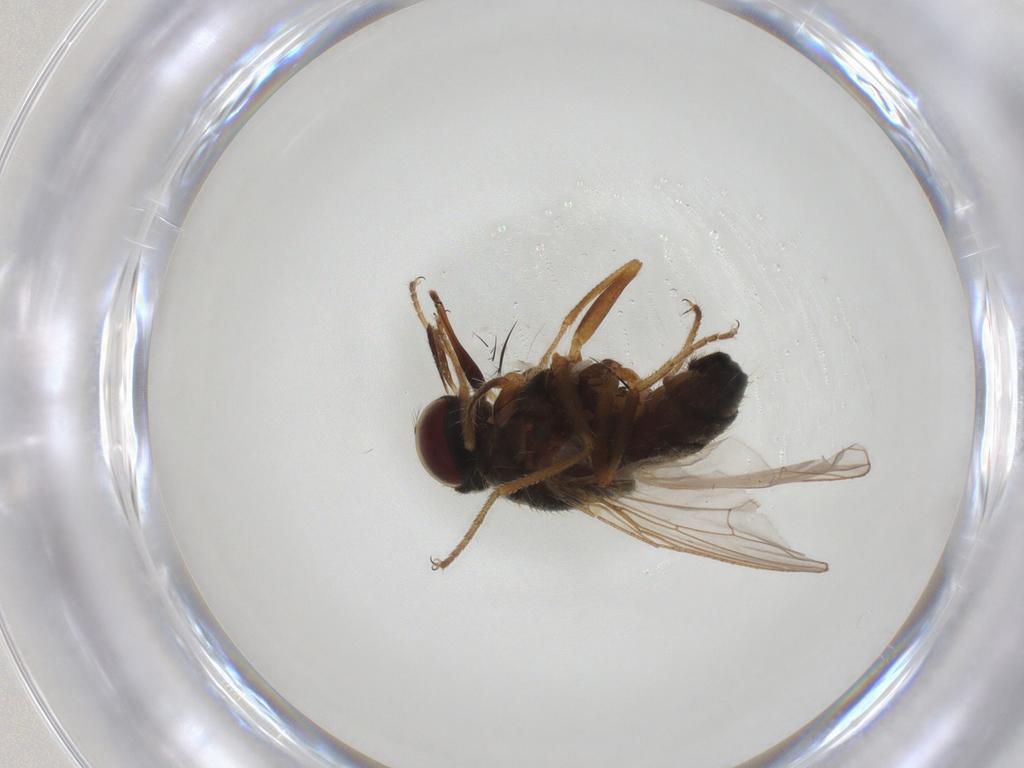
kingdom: Animalia
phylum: Arthropoda
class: Insecta
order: Diptera
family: Muscidae
